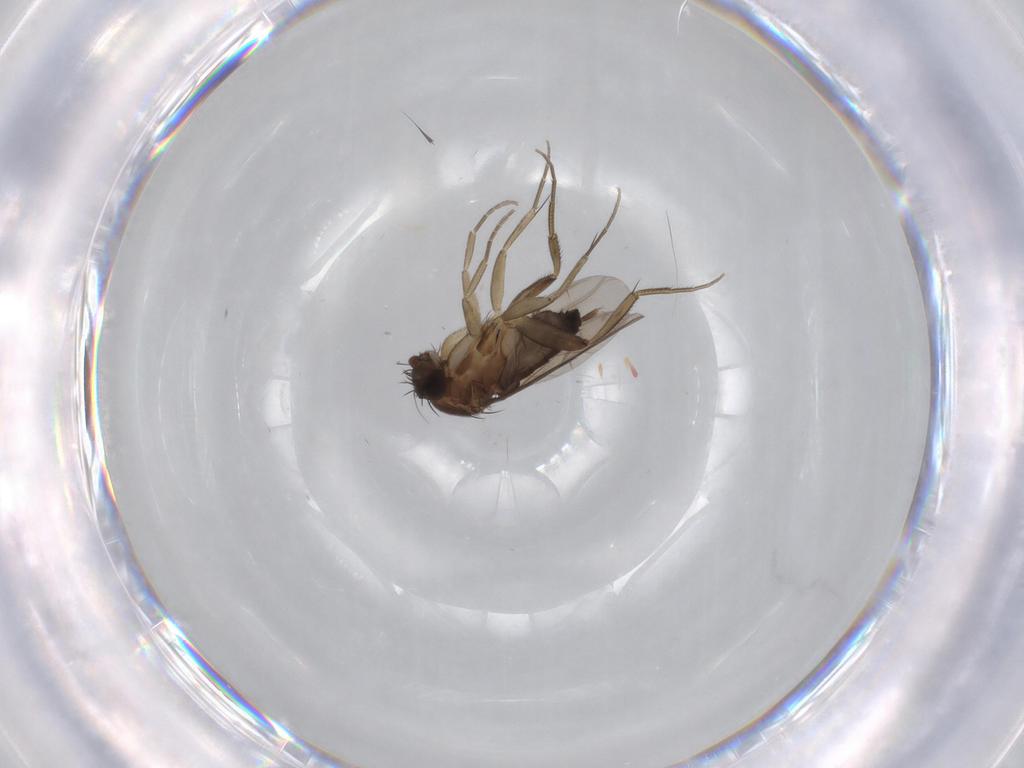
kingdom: Animalia
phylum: Arthropoda
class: Insecta
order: Diptera
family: Phoridae
